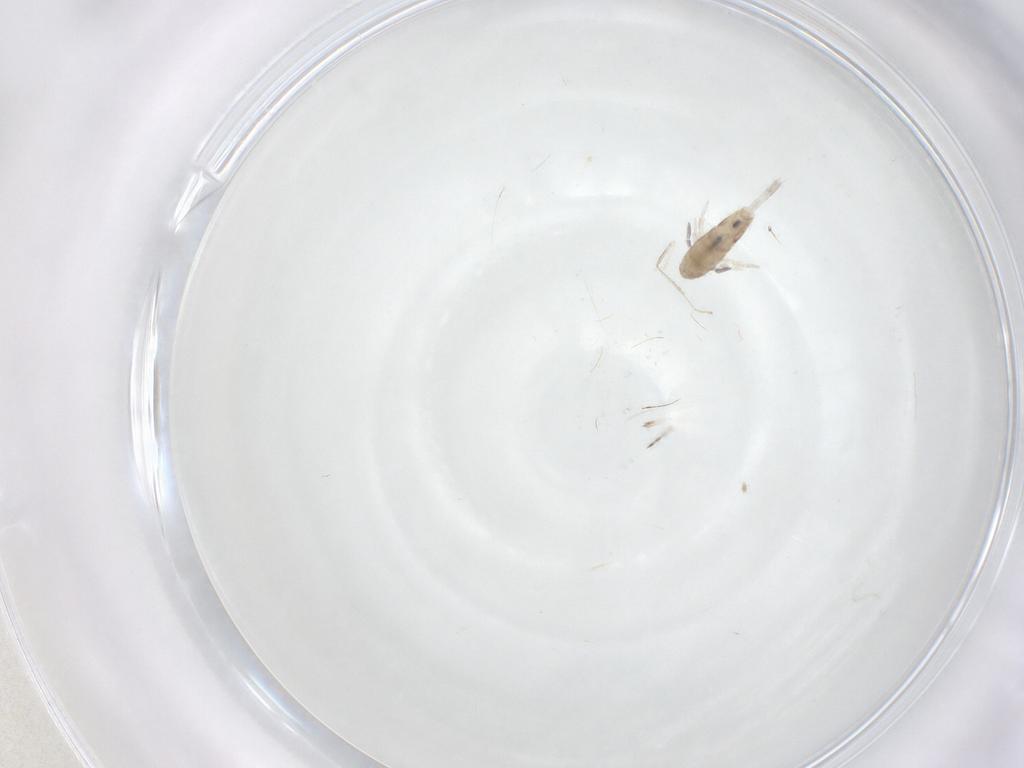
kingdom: Animalia
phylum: Arthropoda
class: Collembola
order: Entomobryomorpha
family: Entomobryidae
